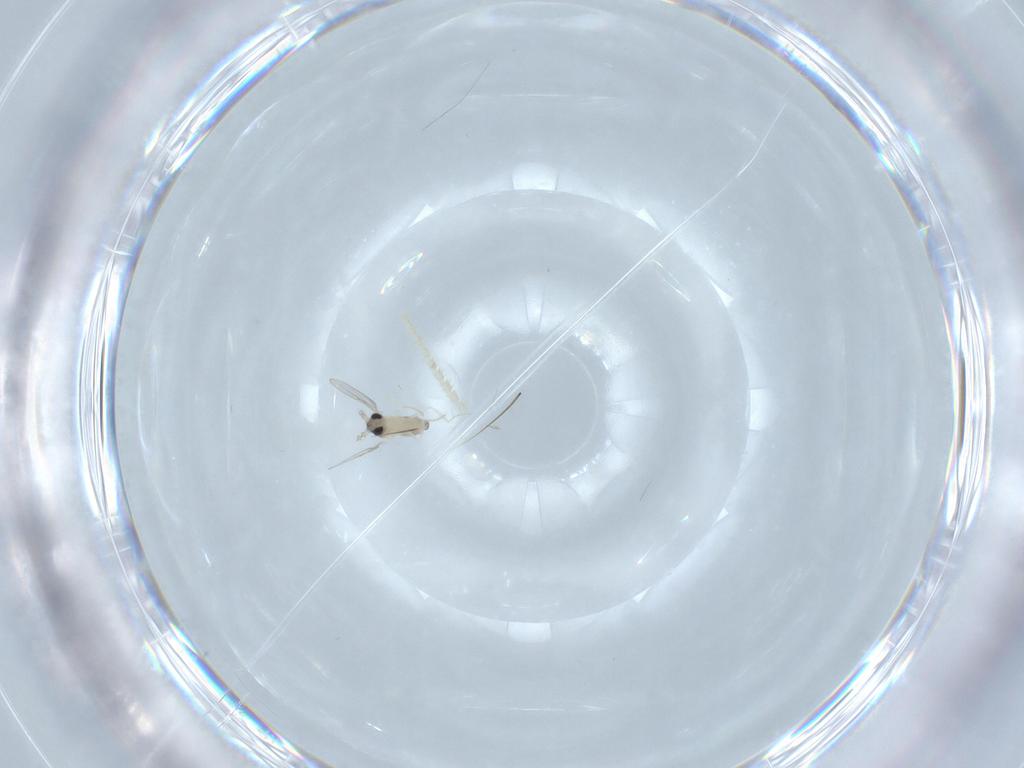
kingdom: Animalia
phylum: Arthropoda
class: Insecta
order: Diptera
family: Cecidomyiidae
